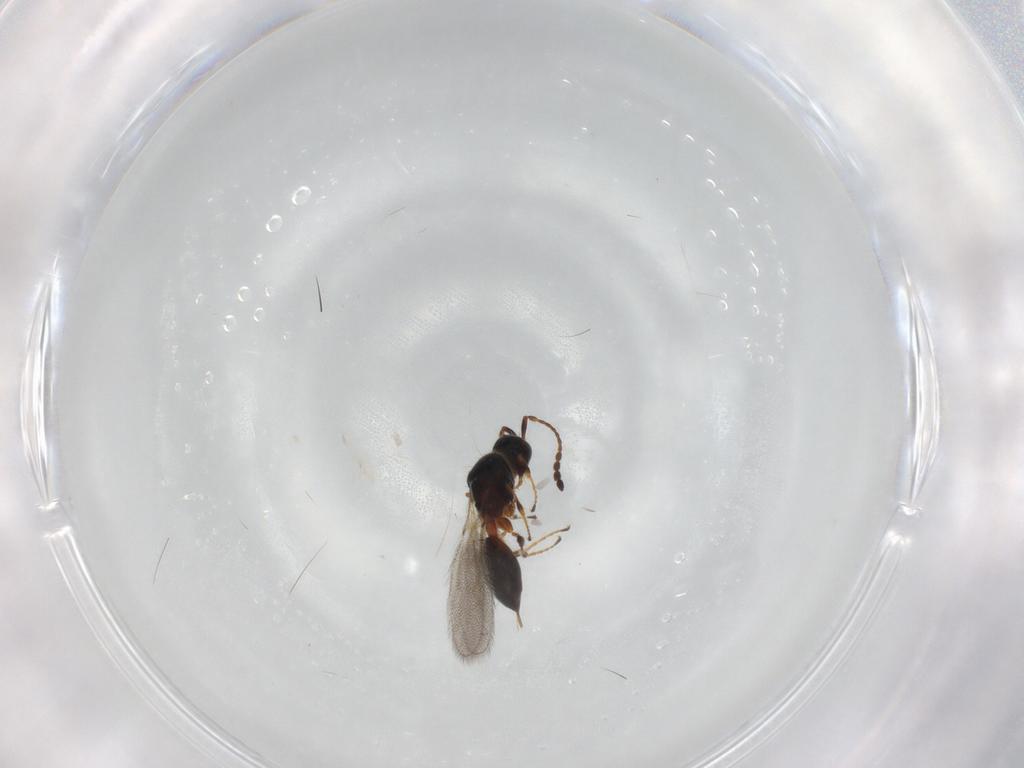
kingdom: Animalia
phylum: Arthropoda
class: Insecta
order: Hymenoptera
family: Diapriidae
